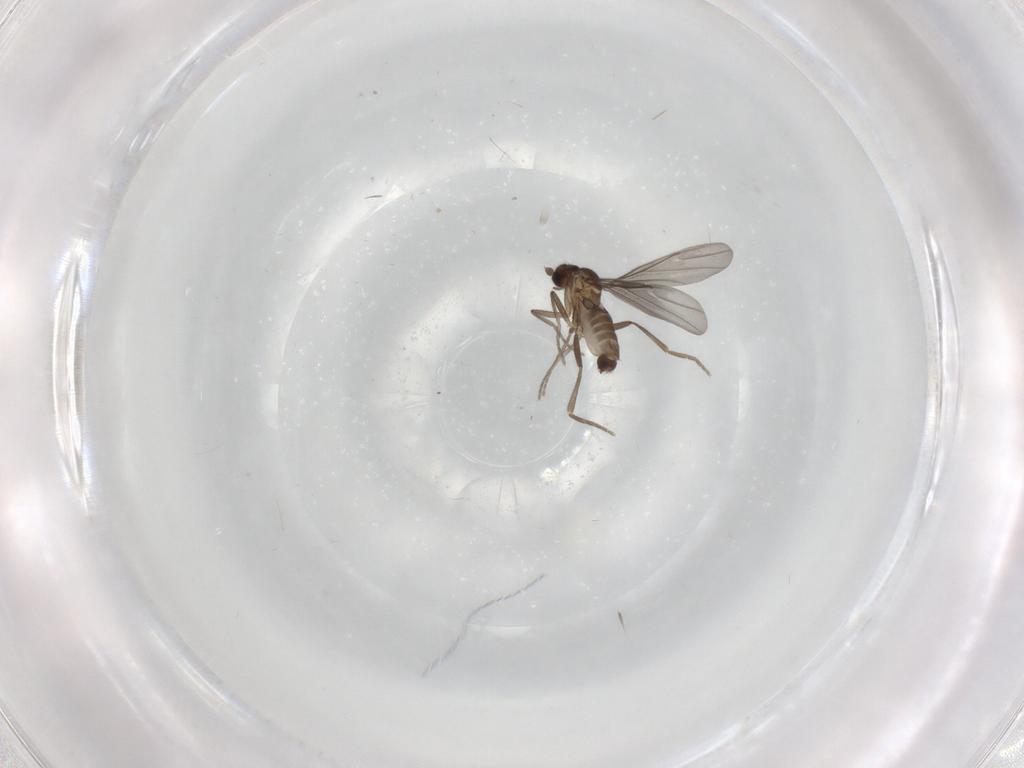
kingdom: Animalia
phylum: Arthropoda
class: Insecta
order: Diptera
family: Phoridae
